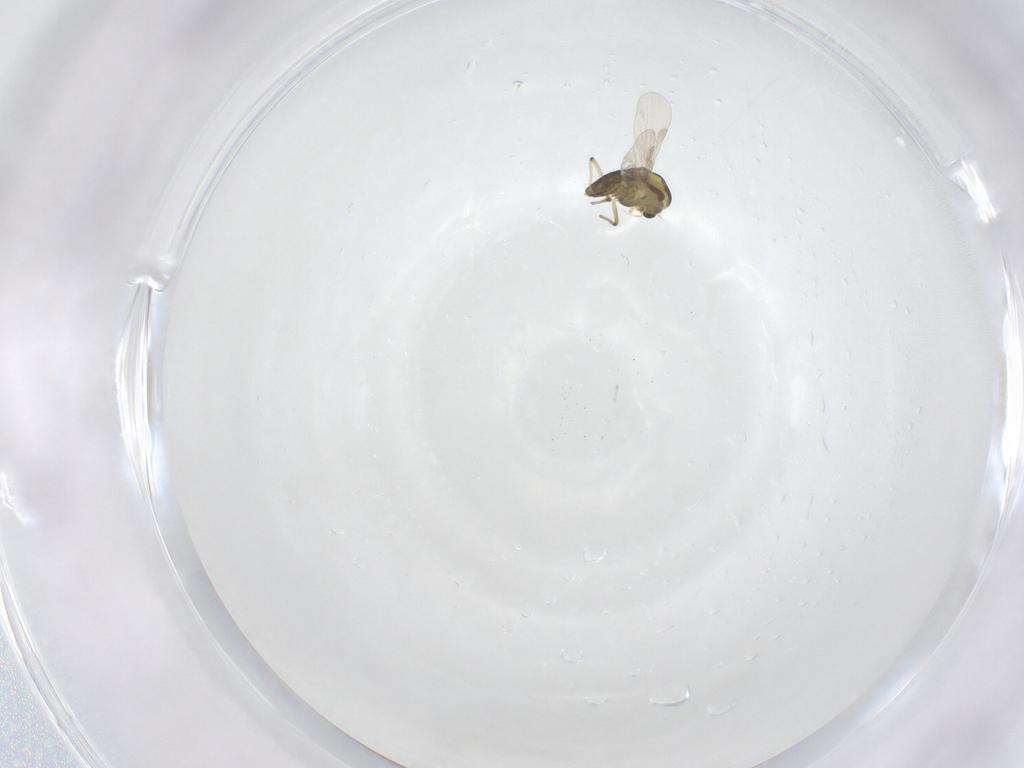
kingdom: Animalia
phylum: Arthropoda
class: Insecta
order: Diptera
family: Chironomidae
